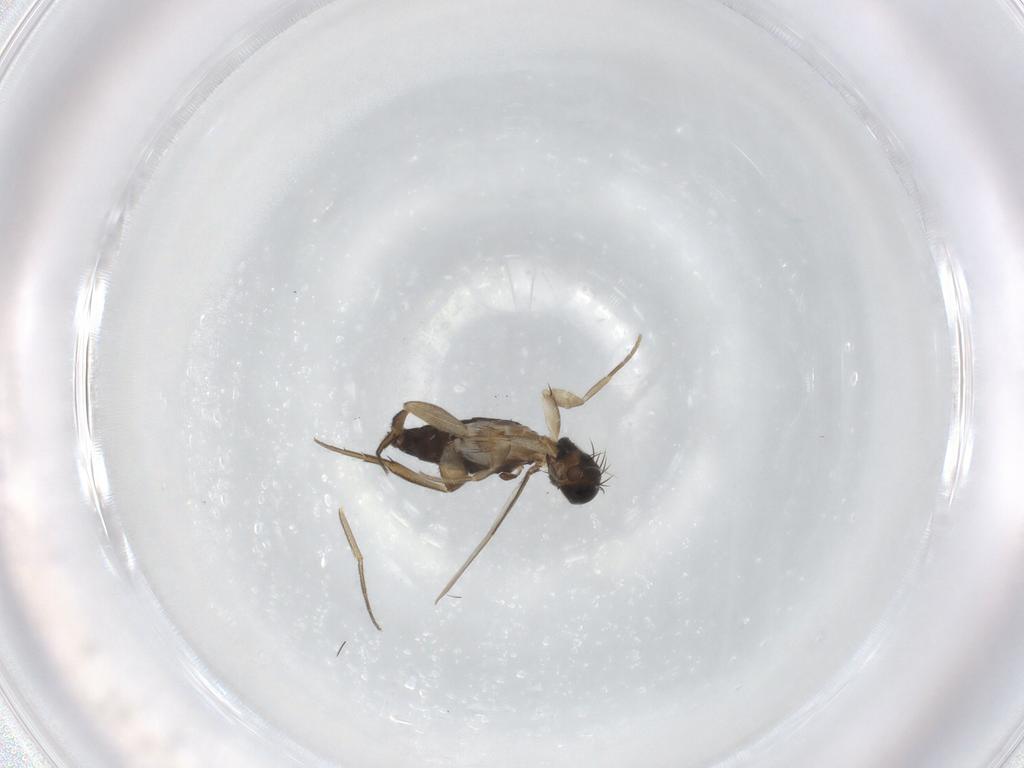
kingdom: Animalia
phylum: Arthropoda
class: Insecta
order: Diptera
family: Phoridae
